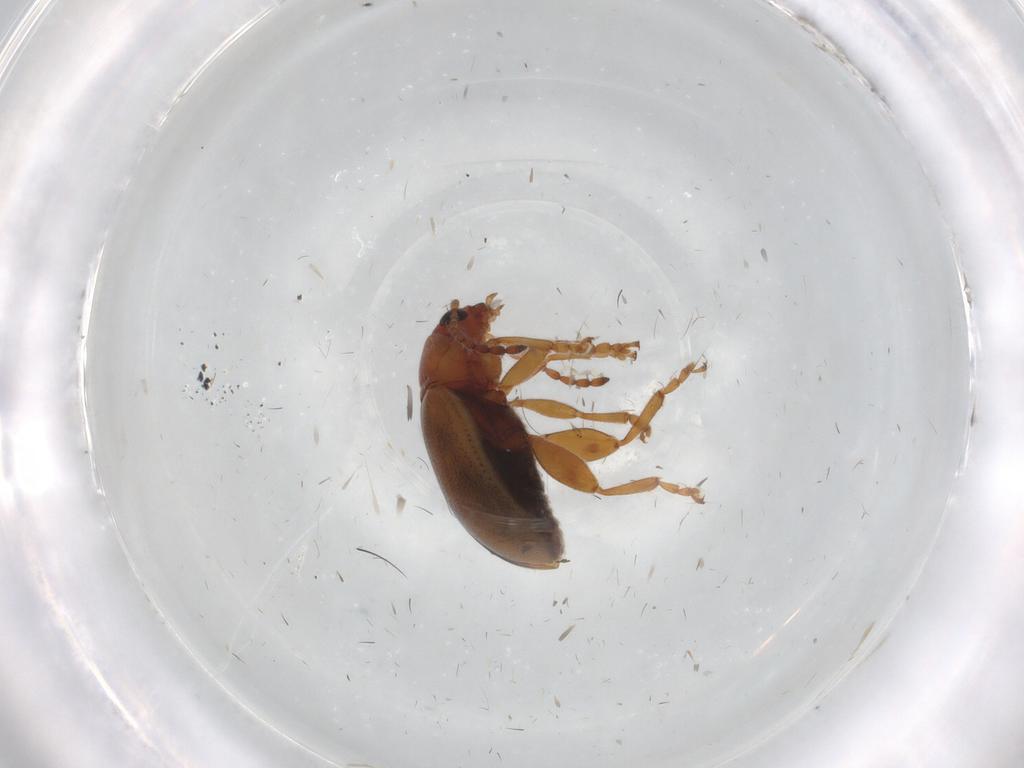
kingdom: Animalia
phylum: Arthropoda
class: Insecta
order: Coleoptera
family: Chrysomelidae
